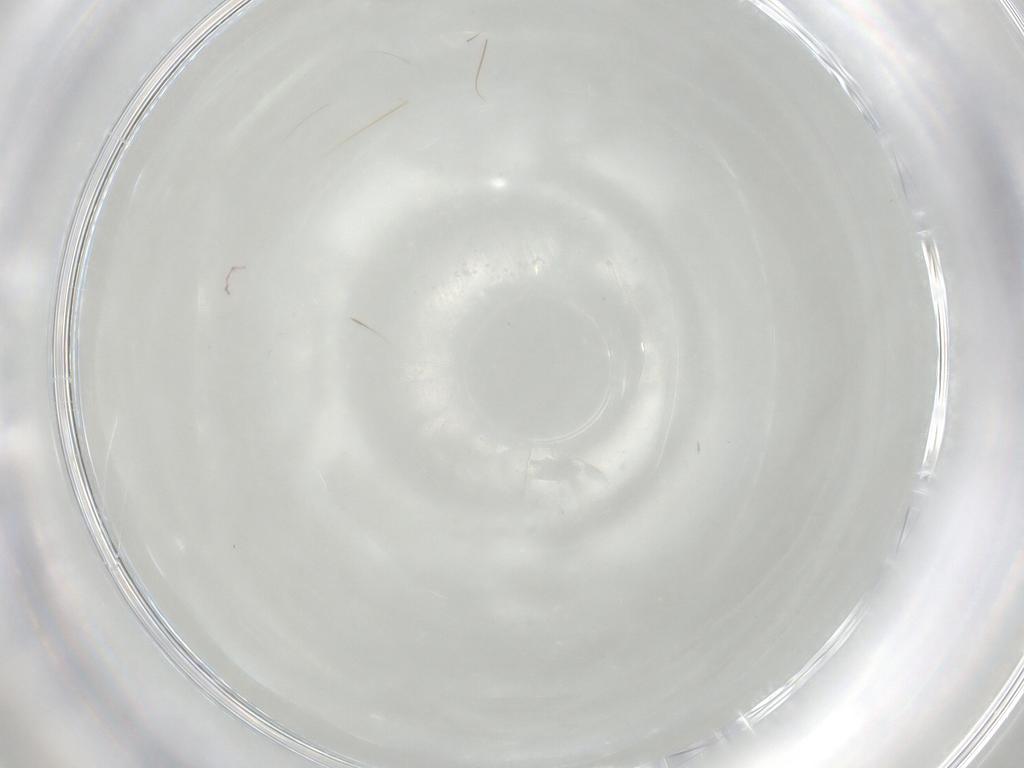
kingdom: Animalia
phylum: Arthropoda
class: Insecta
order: Diptera
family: Chironomidae
